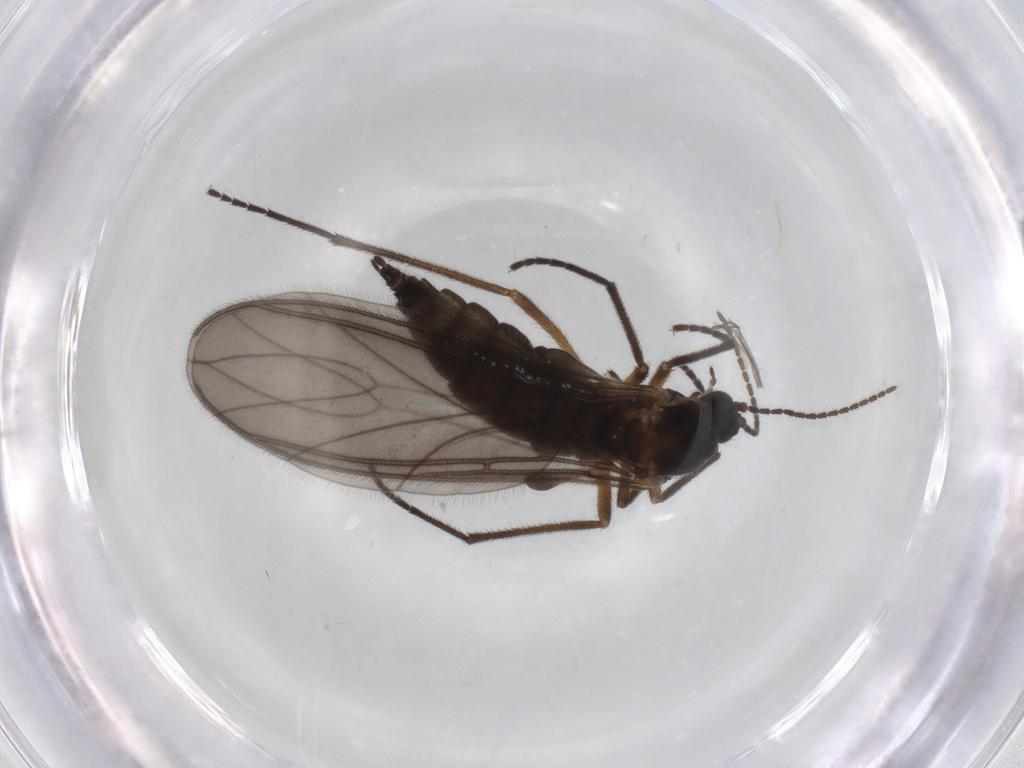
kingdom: Animalia
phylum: Arthropoda
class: Insecta
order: Diptera
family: Sciaridae
